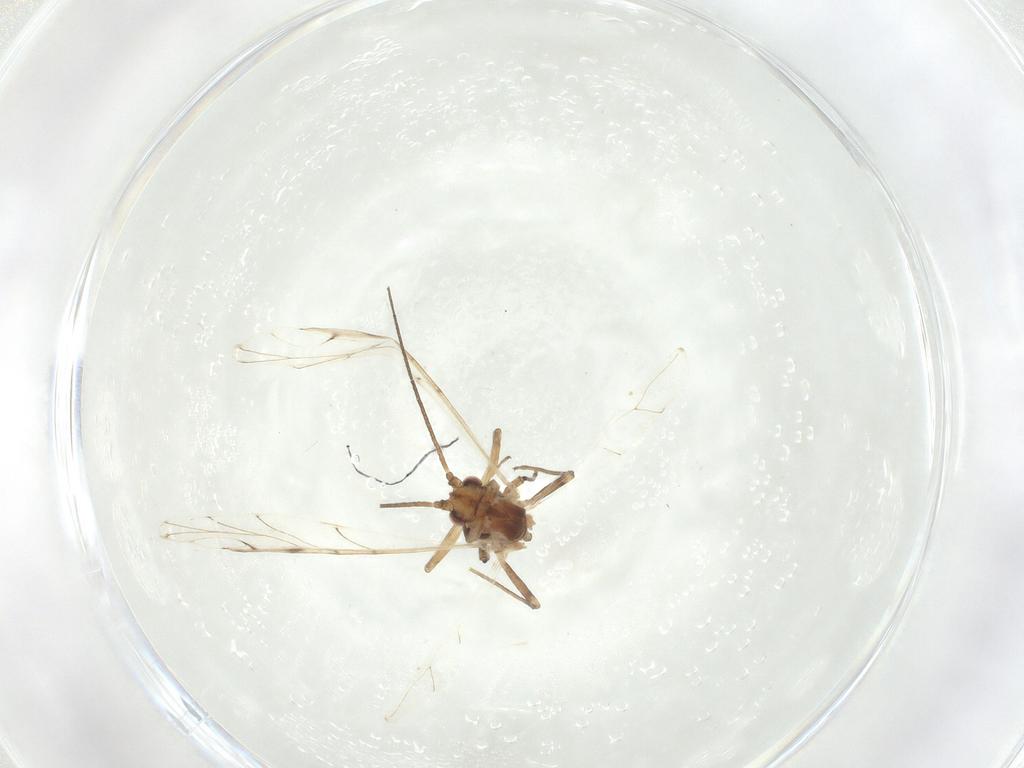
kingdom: Animalia
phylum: Arthropoda
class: Insecta
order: Hemiptera
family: Aphididae
